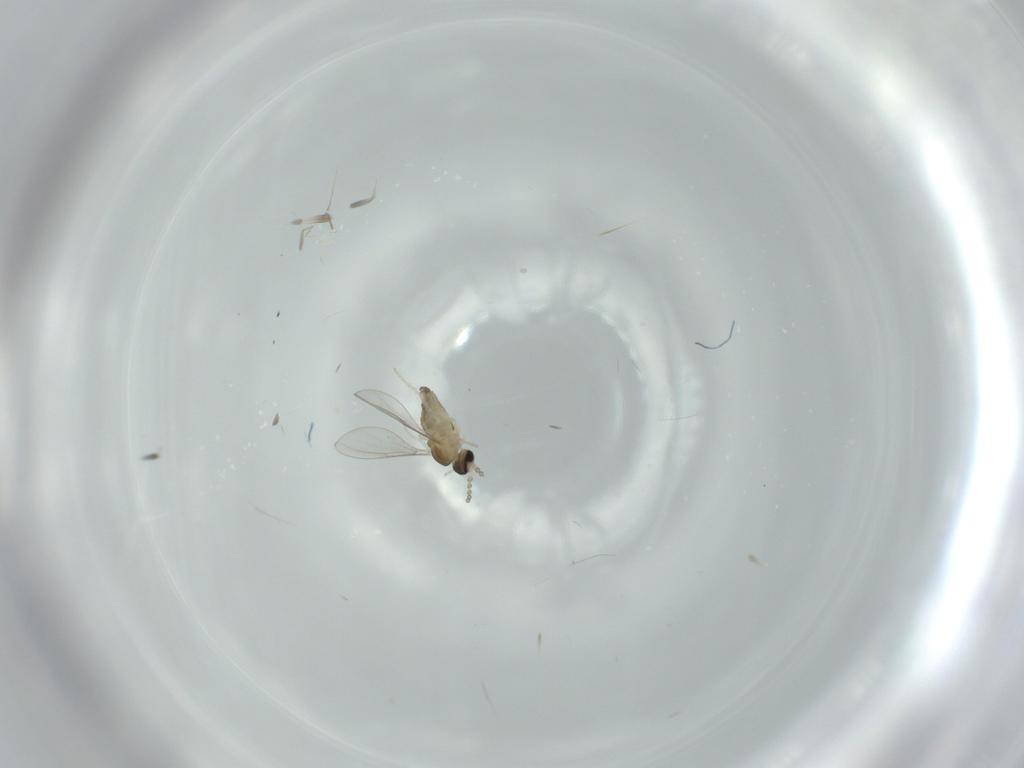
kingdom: Animalia
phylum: Arthropoda
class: Insecta
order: Diptera
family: Cecidomyiidae
